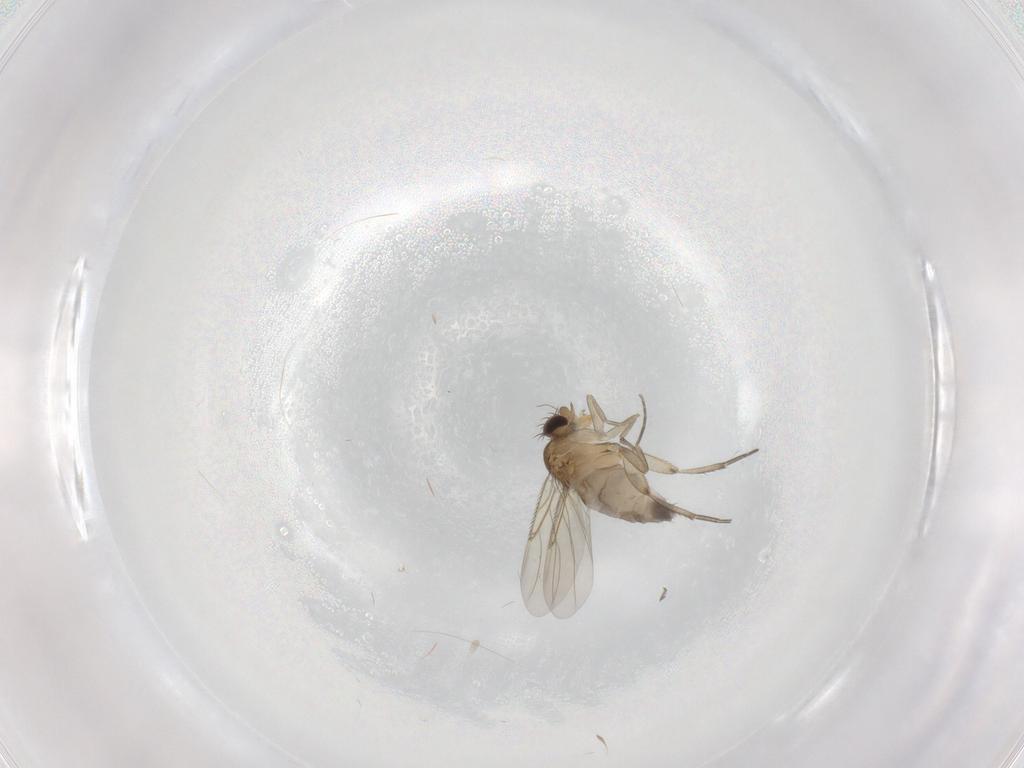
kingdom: Animalia
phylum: Arthropoda
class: Insecta
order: Diptera
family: Phoridae
